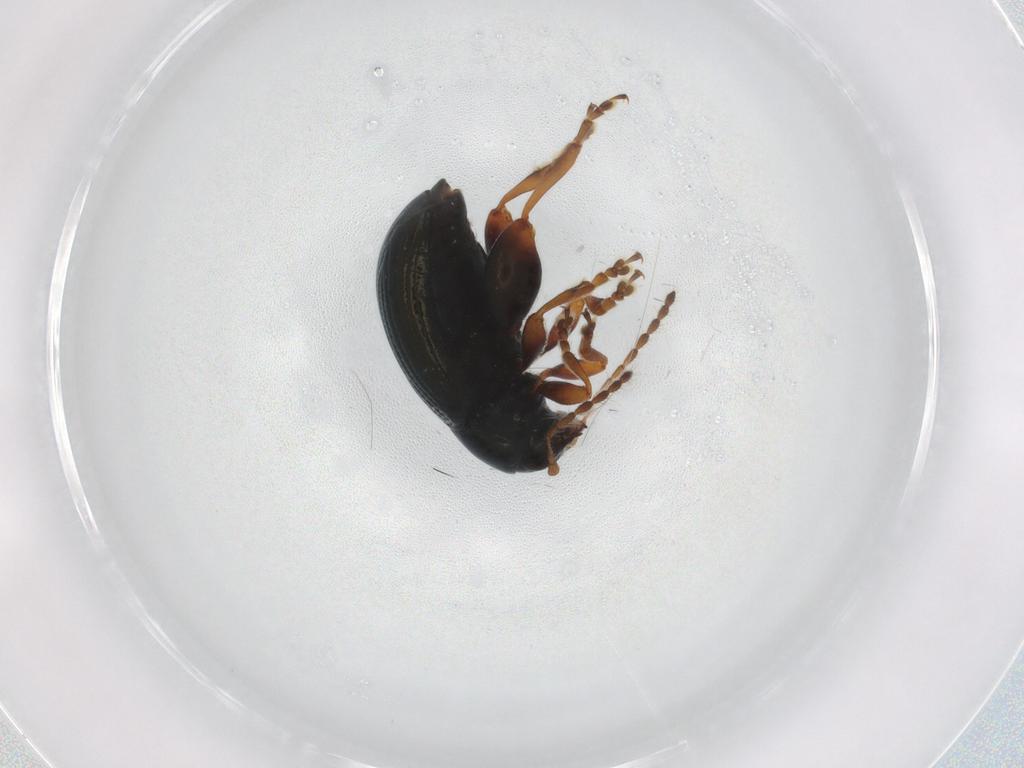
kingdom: Animalia
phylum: Arthropoda
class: Insecta
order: Coleoptera
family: Chrysomelidae
